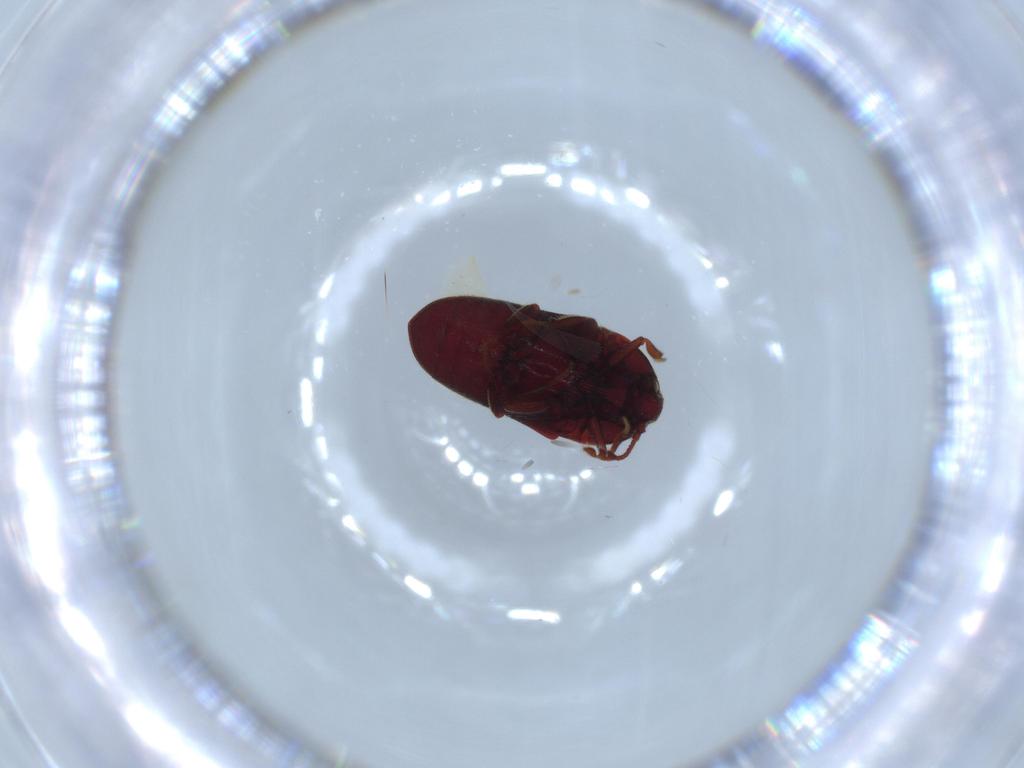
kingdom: Animalia
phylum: Arthropoda
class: Insecta
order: Coleoptera
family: Throscidae
